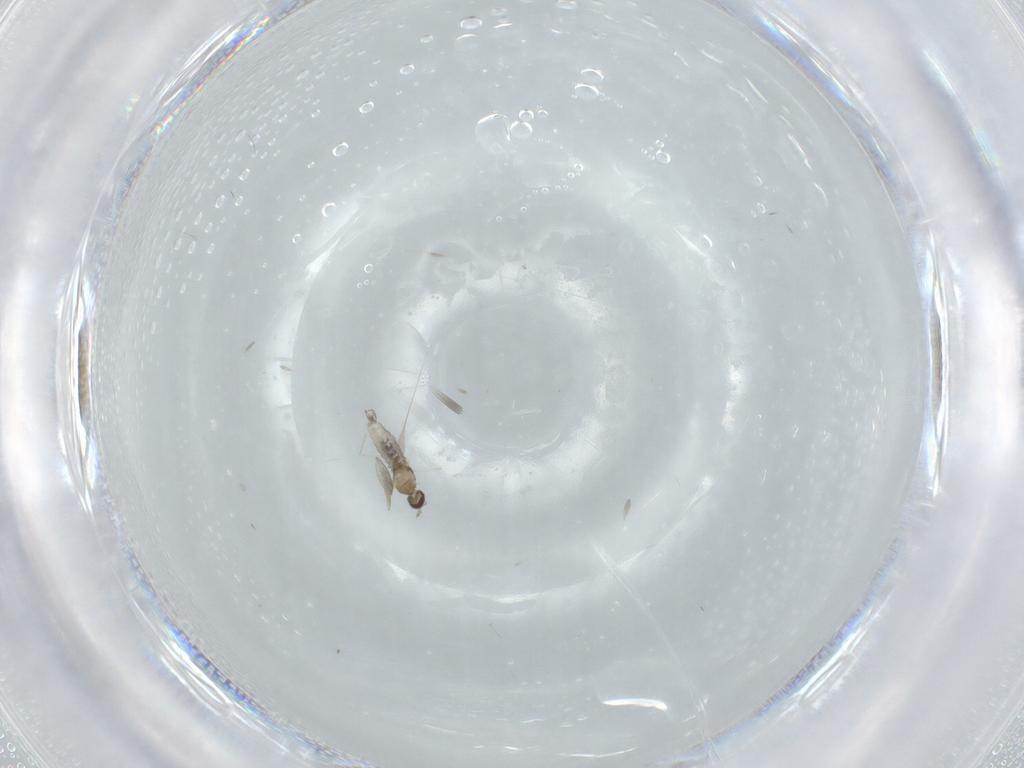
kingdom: Animalia
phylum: Arthropoda
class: Insecta
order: Diptera
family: Cecidomyiidae
